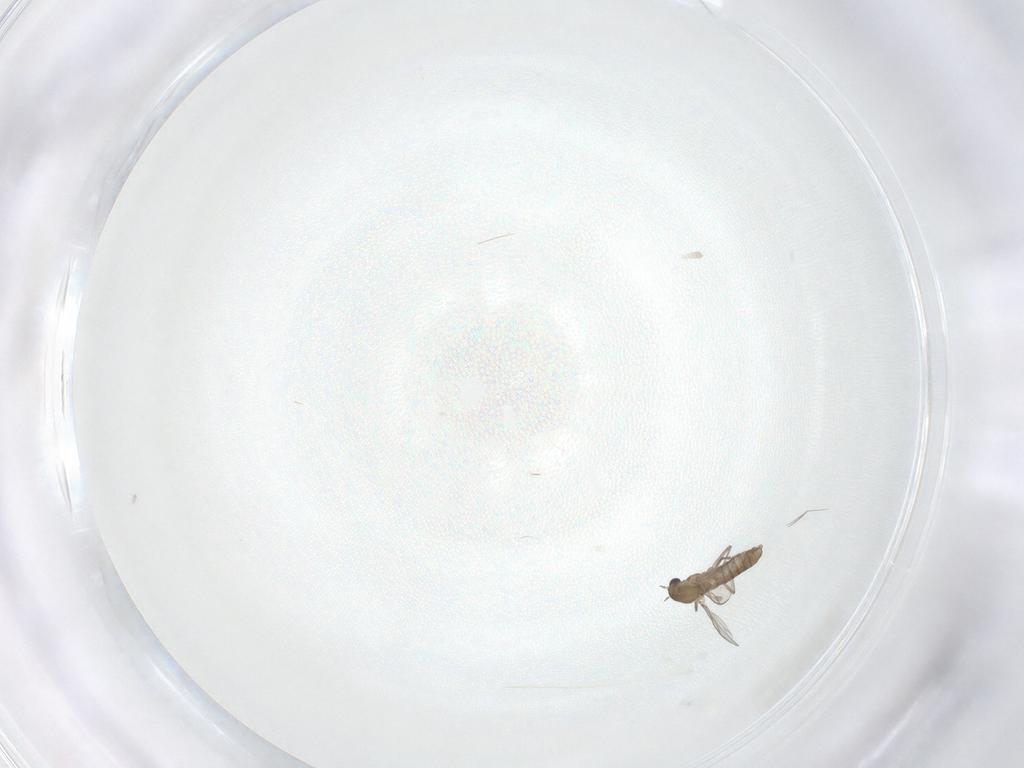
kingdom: Animalia
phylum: Arthropoda
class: Insecta
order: Diptera
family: Chironomidae
